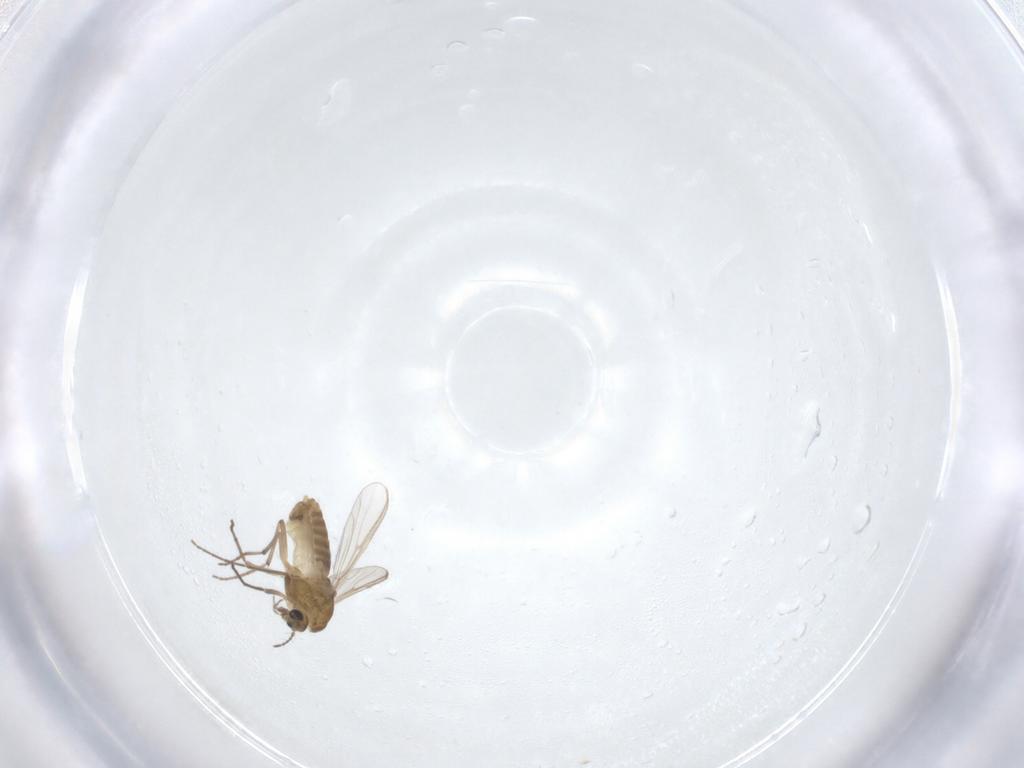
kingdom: Animalia
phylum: Arthropoda
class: Insecta
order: Diptera
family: Chironomidae
